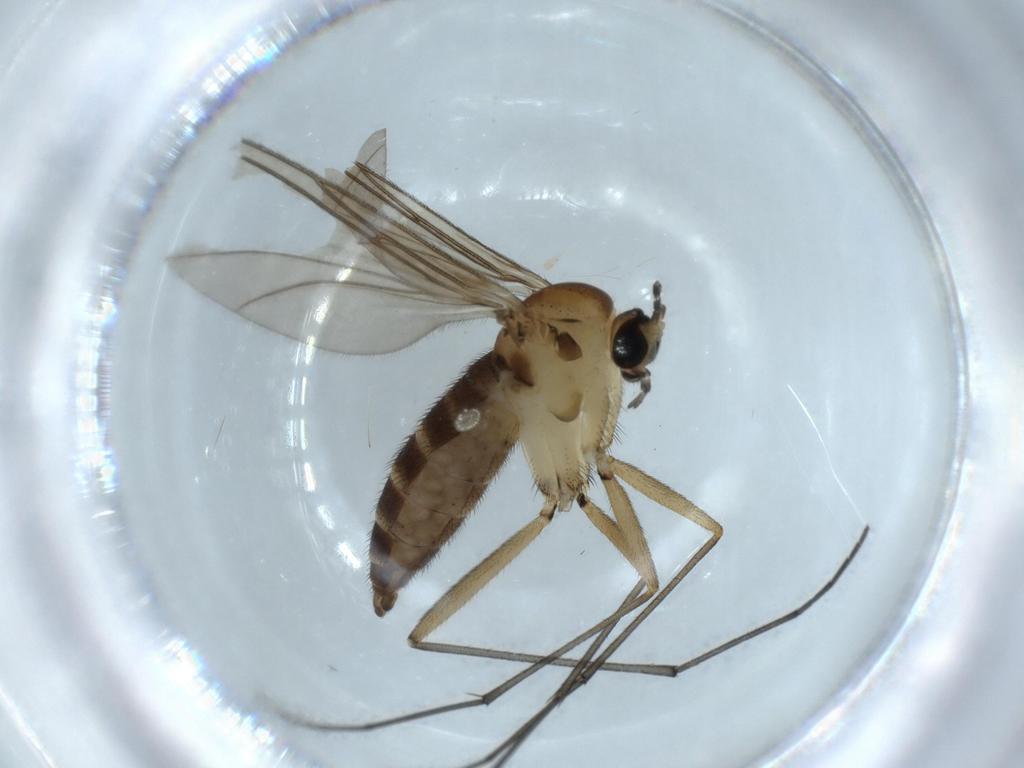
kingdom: Animalia
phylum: Arthropoda
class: Insecta
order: Diptera
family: Sciaridae
